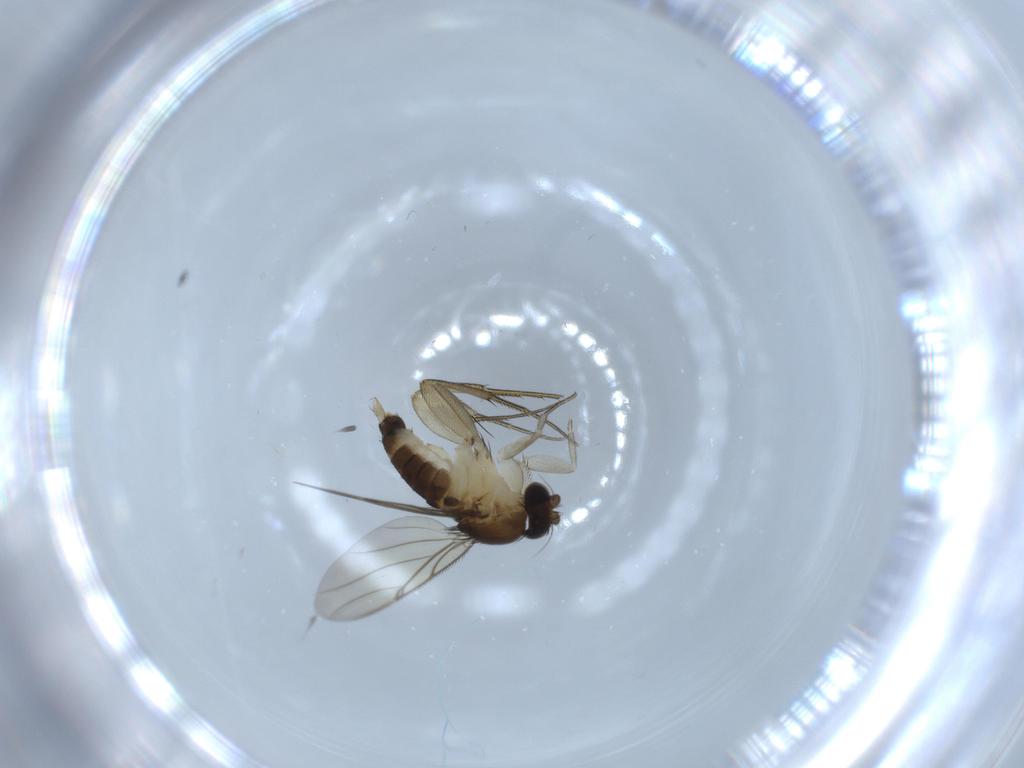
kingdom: Animalia
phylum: Arthropoda
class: Insecta
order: Diptera
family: Phoridae
